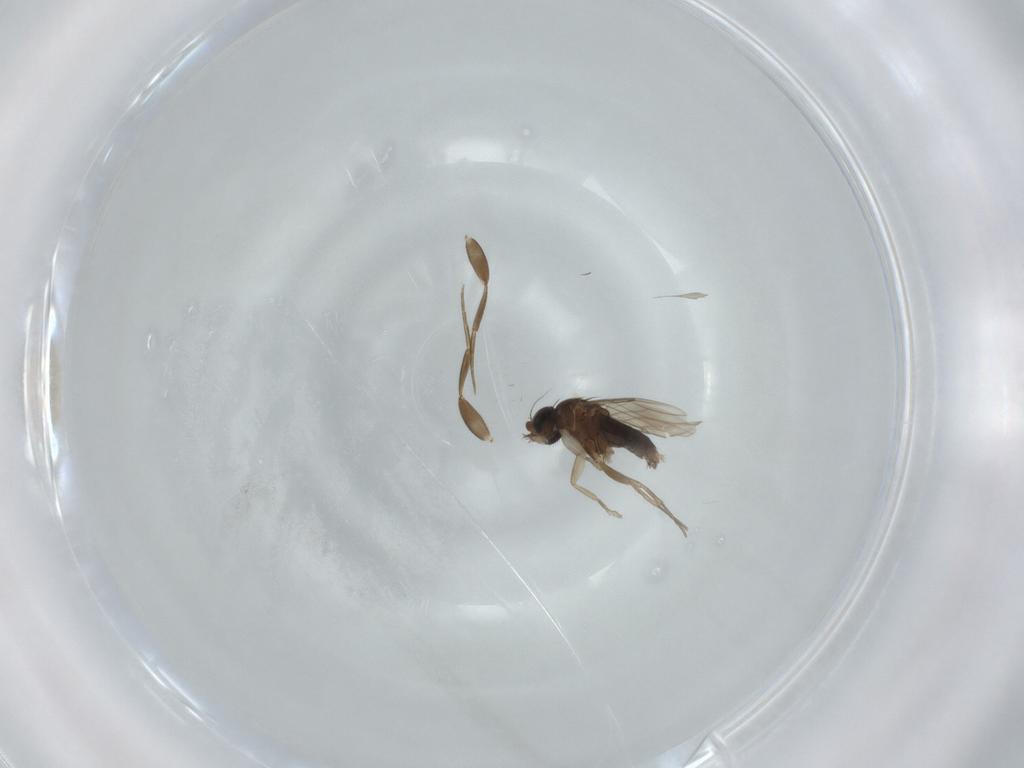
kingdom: Animalia
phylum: Arthropoda
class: Insecta
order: Diptera
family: Phoridae
